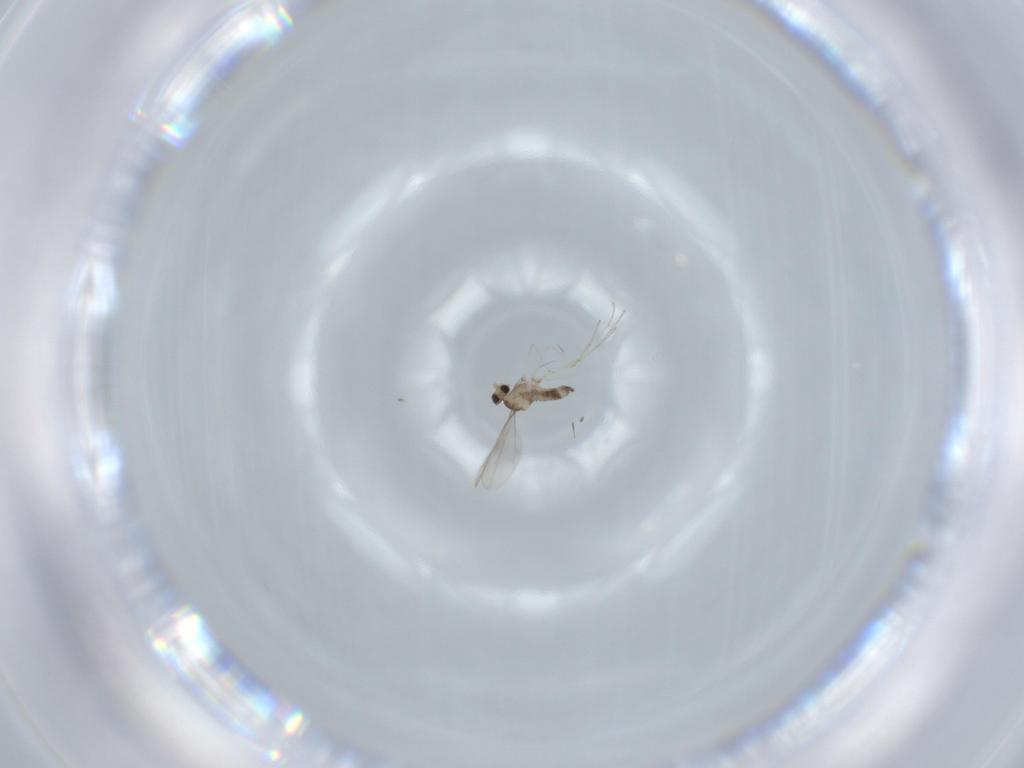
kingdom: Animalia
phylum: Arthropoda
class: Insecta
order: Diptera
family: Cecidomyiidae
